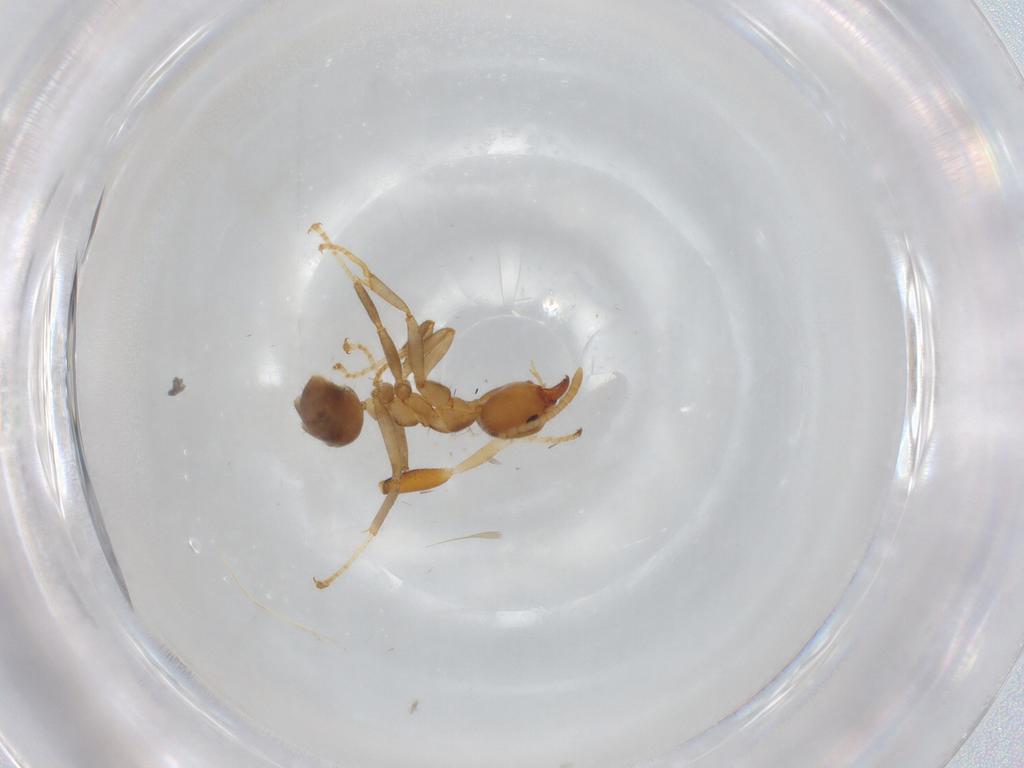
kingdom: Animalia
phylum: Arthropoda
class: Insecta
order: Hymenoptera
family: Formicidae
